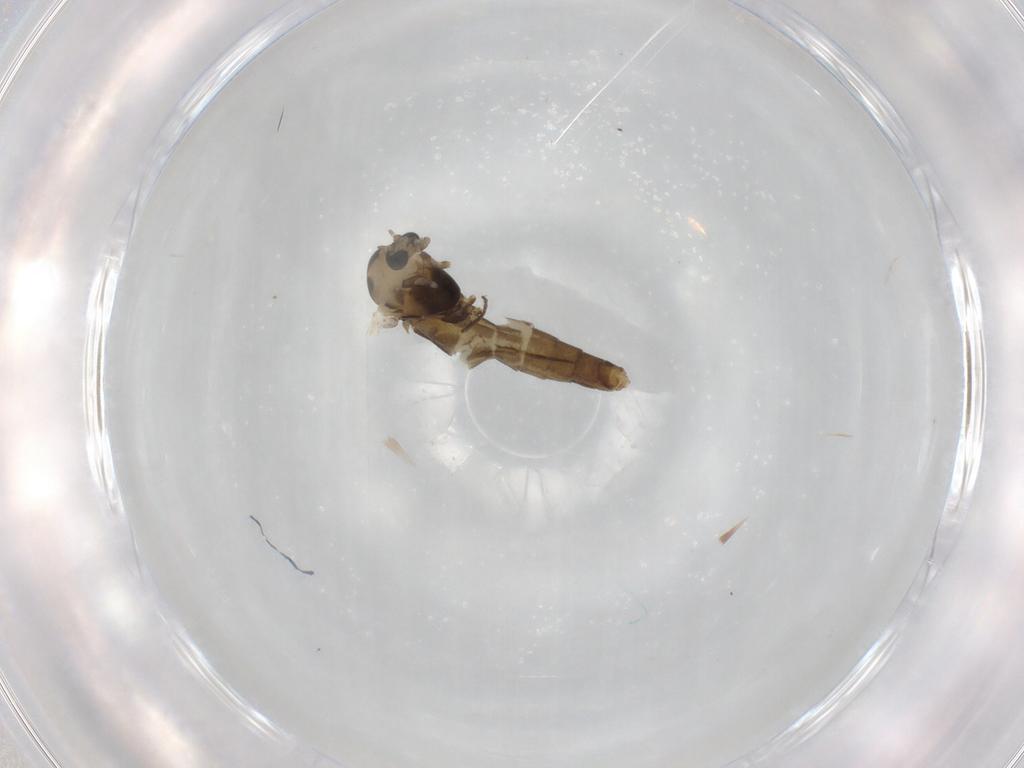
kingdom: Animalia
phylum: Arthropoda
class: Insecta
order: Diptera
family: Chironomidae
